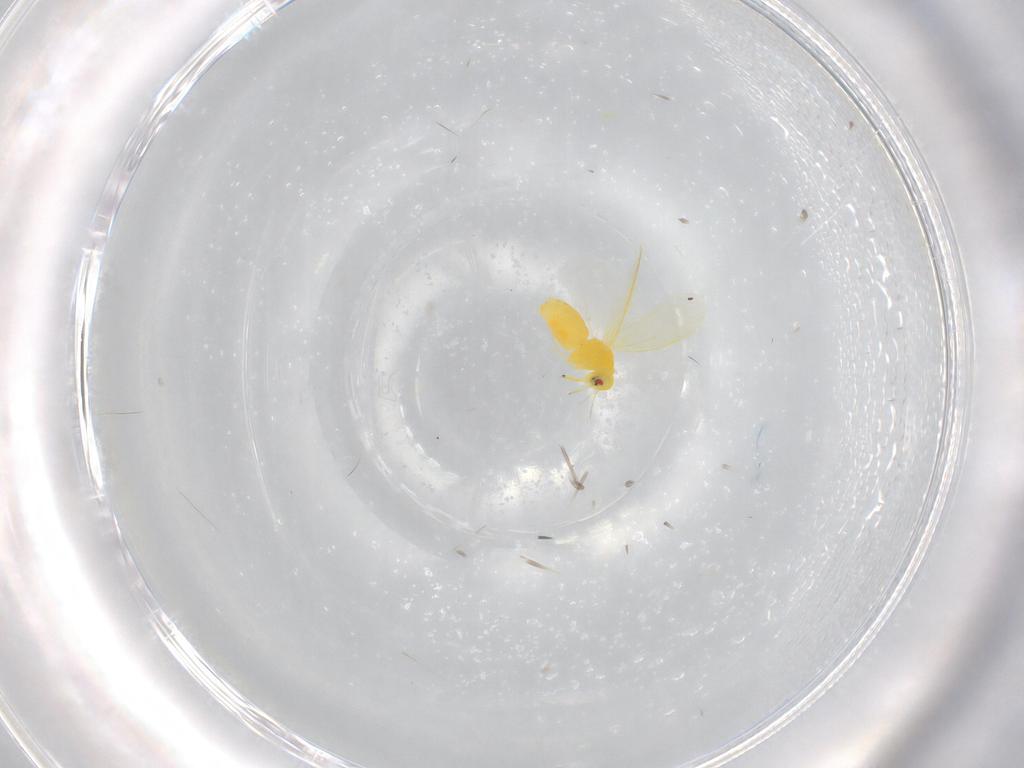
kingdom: Animalia
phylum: Arthropoda
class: Insecta
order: Hemiptera
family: Aleyrodidae
